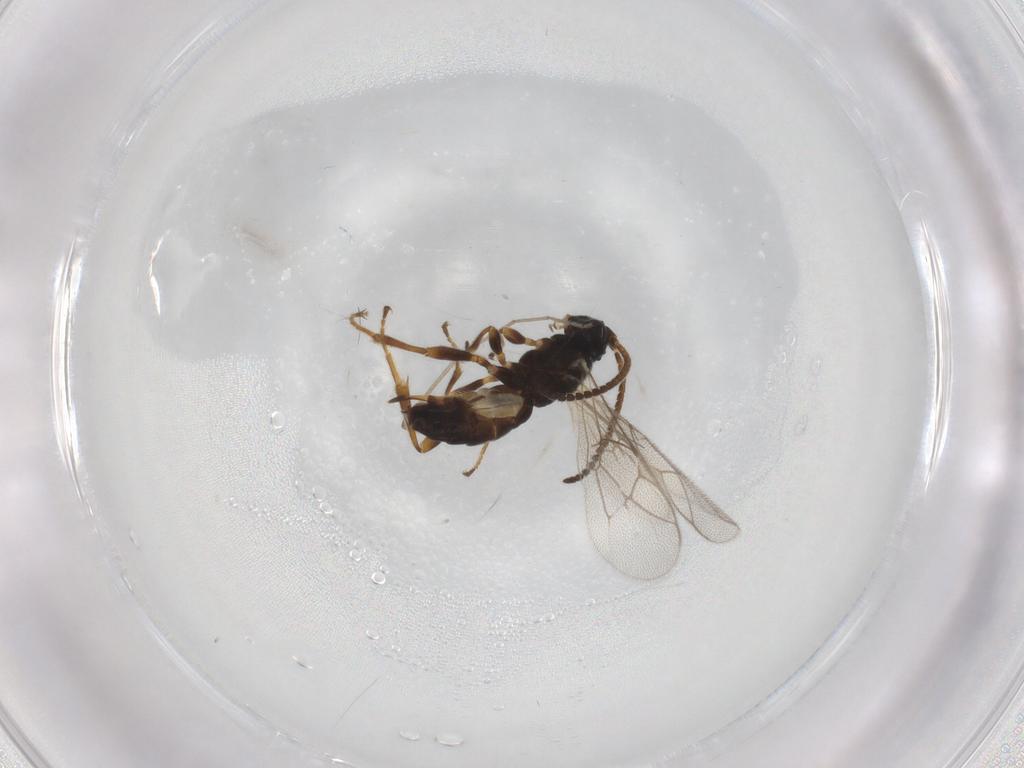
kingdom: Animalia
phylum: Arthropoda
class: Insecta
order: Hymenoptera
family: Ichneumonidae
